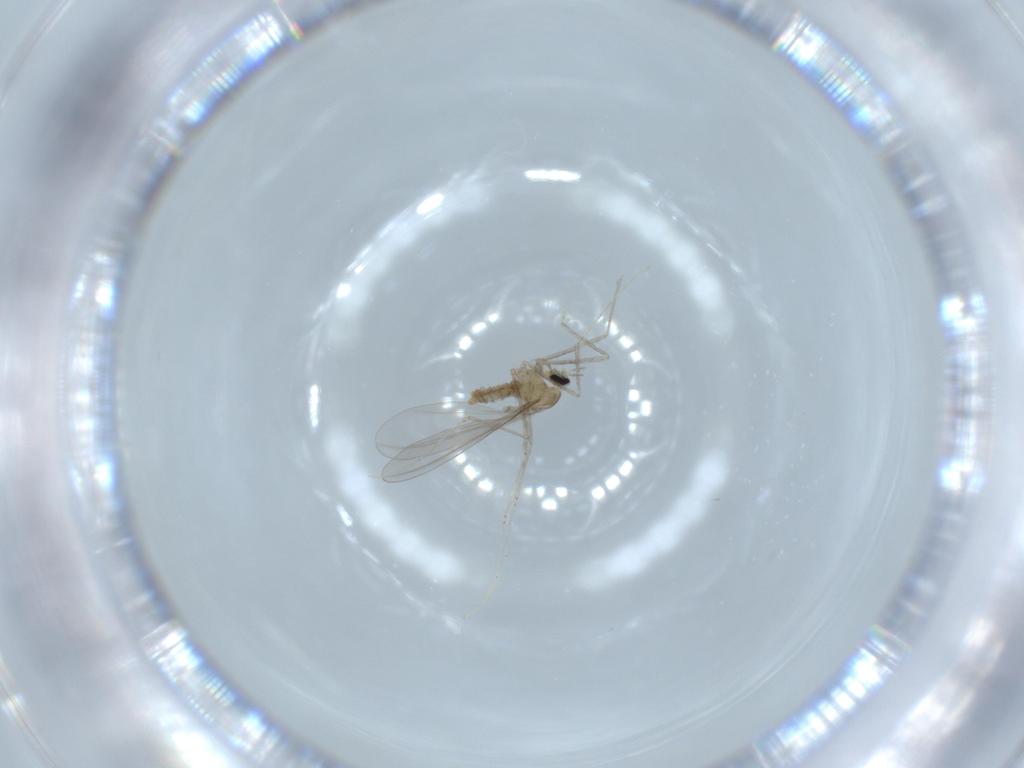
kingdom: Animalia
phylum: Arthropoda
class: Insecta
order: Diptera
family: Cecidomyiidae
